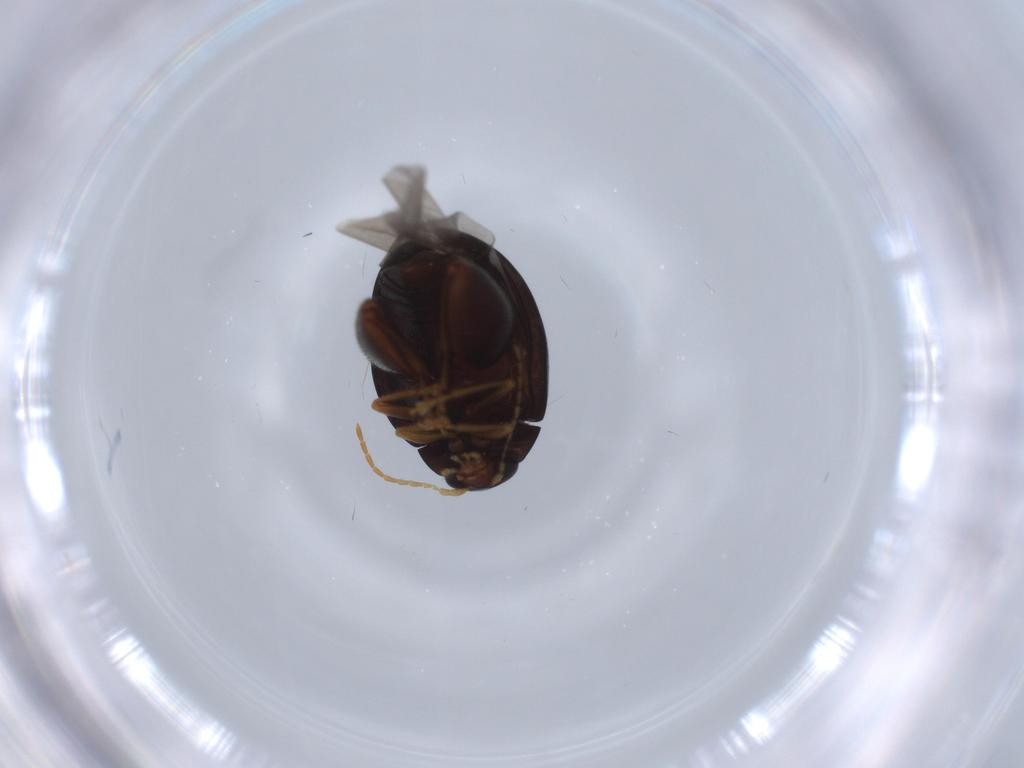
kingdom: Animalia
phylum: Arthropoda
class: Insecta
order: Coleoptera
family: Chrysomelidae
